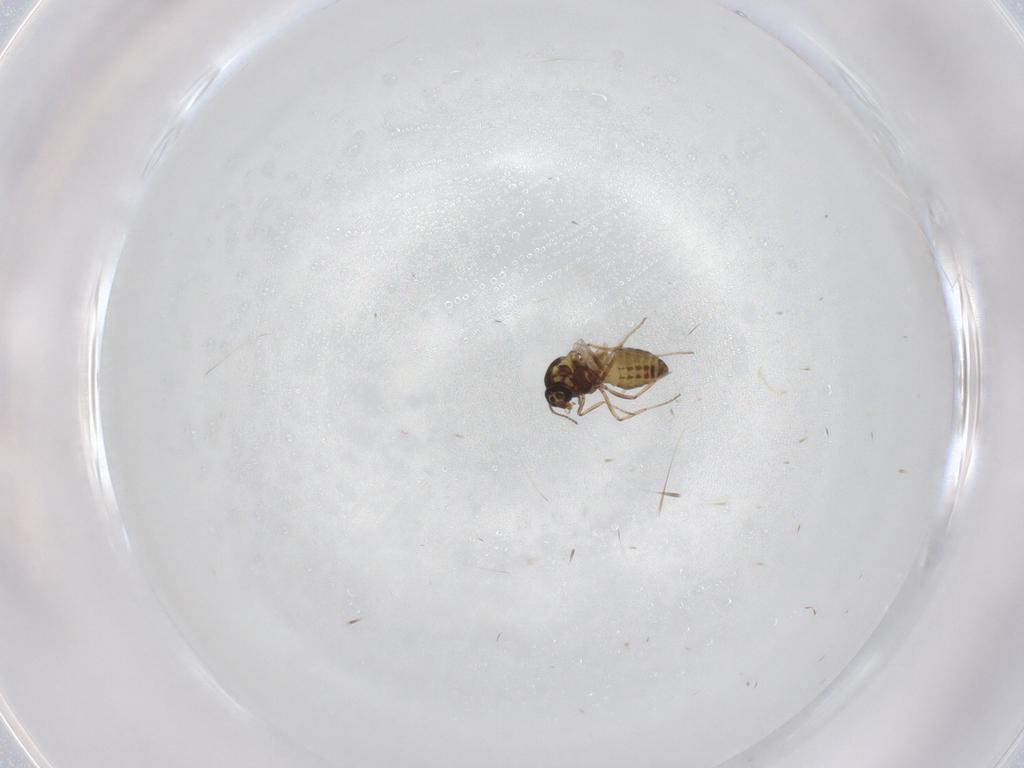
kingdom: Animalia
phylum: Arthropoda
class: Insecta
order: Diptera
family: Ceratopogonidae
